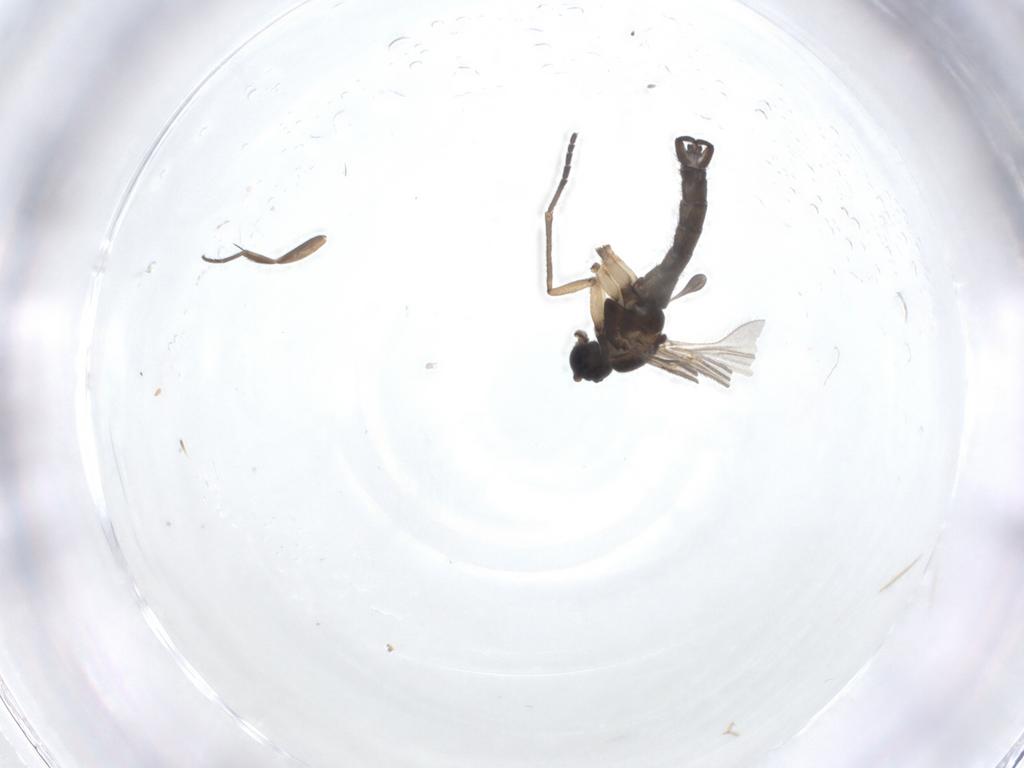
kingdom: Animalia
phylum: Arthropoda
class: Insecta
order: Diptera
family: Sciaridae
